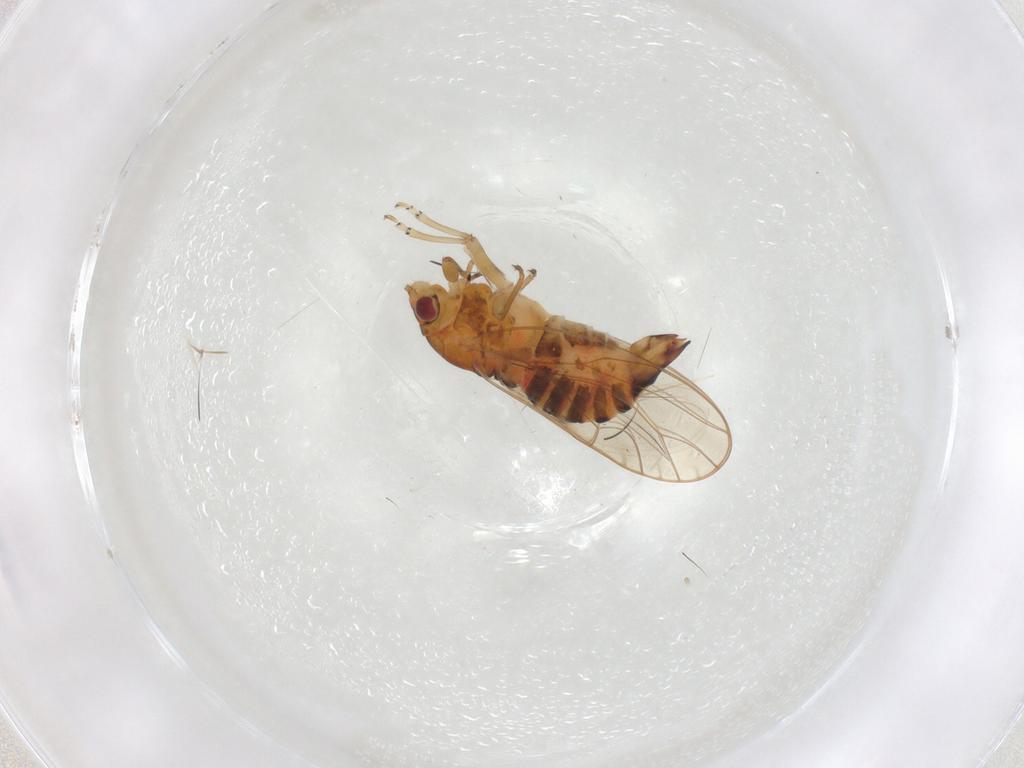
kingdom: Animalia
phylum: Arthropoda
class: Insecta
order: Hemiptera
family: Psyllidae
